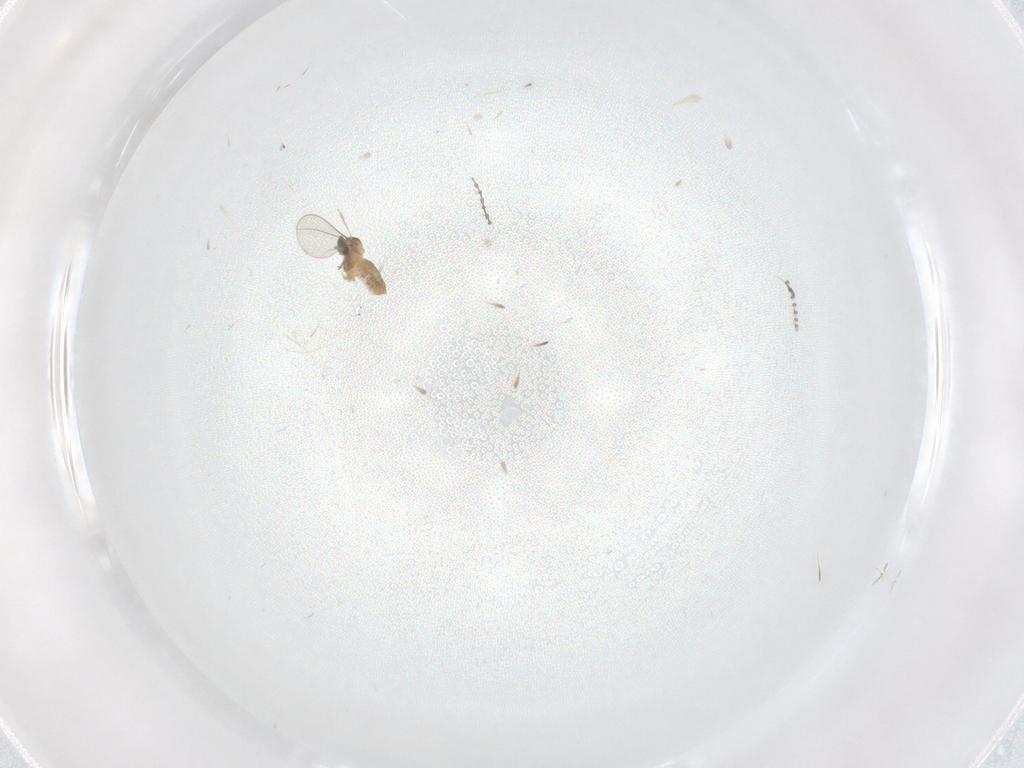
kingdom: Animalia
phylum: Arthropoda
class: Insecta
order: Diptera
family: Cecidomyiidae
